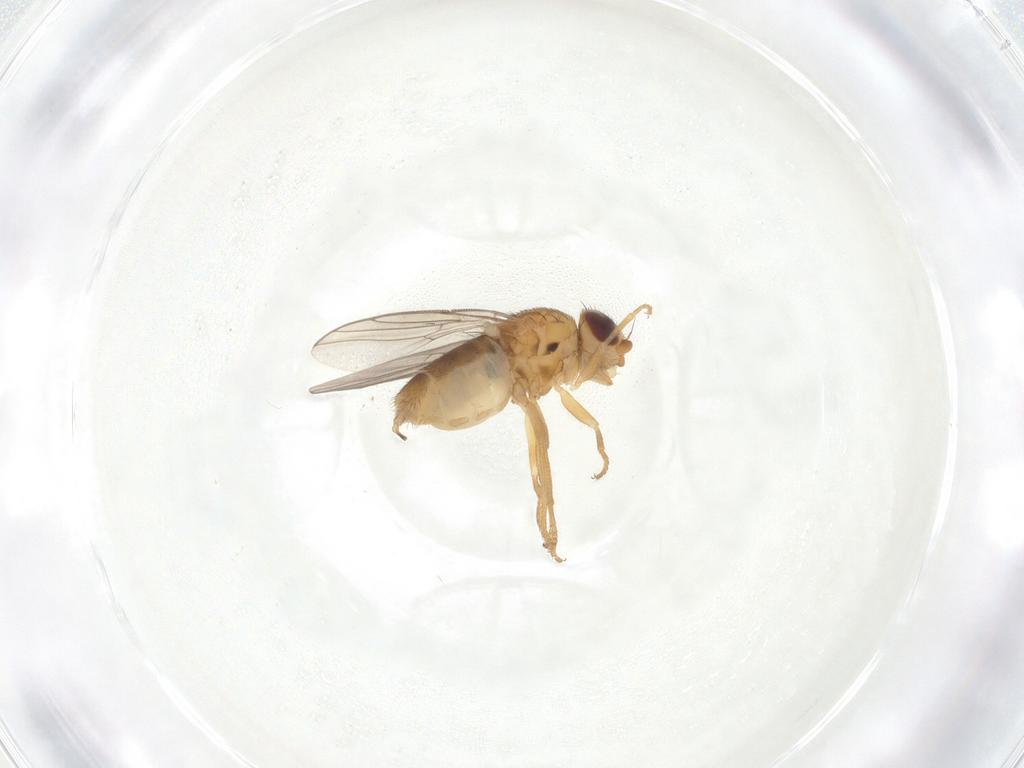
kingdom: Animalia
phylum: Arthropoda
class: Insecta
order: Diptera
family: Chloropidae
